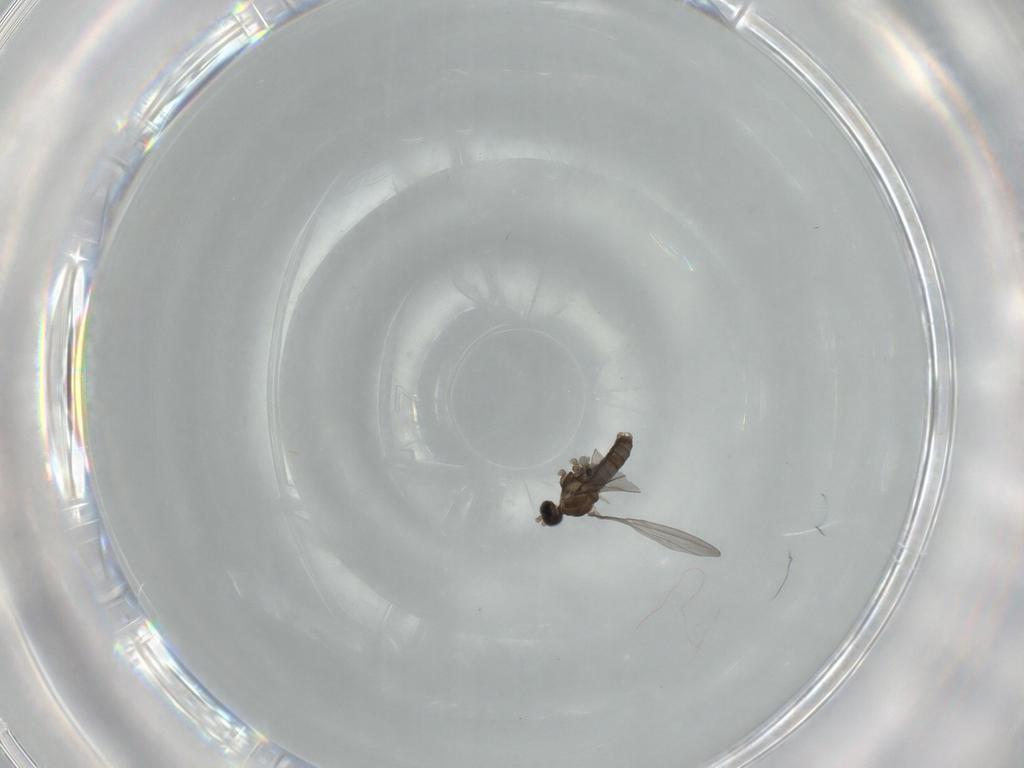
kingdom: Animalia
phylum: Arthropoda
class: Insecta
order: Diptera
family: Cecidomyiidae
